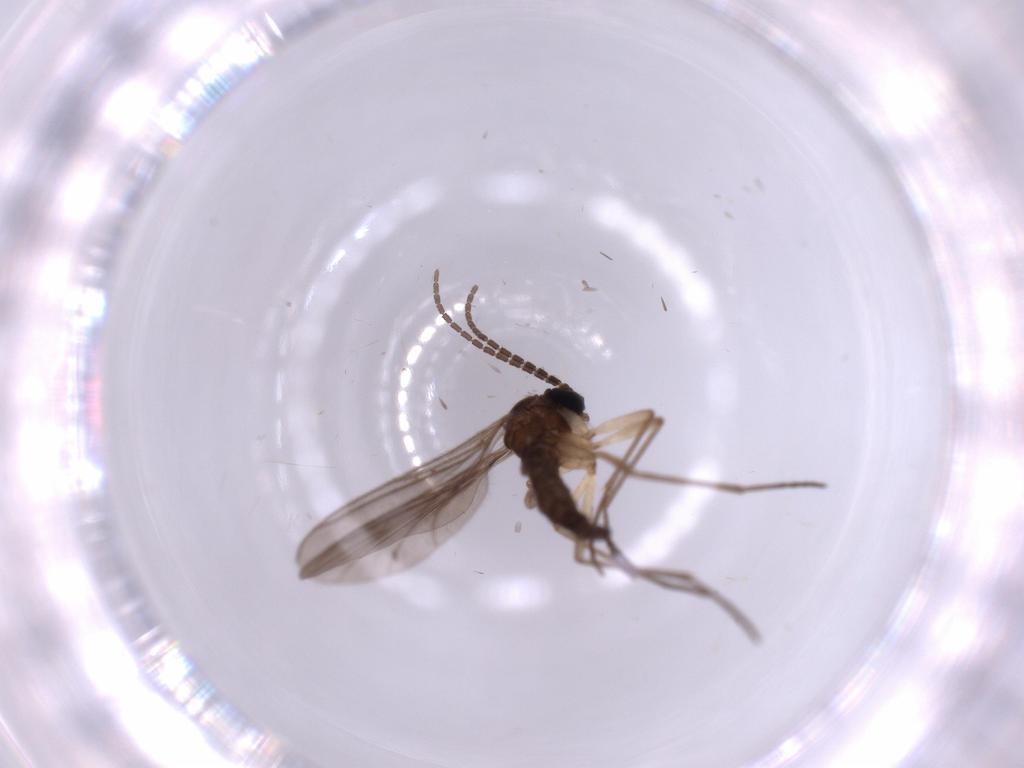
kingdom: Animalia
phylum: Arthropoda
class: Insecta
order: Diptera
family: Sciaridae
